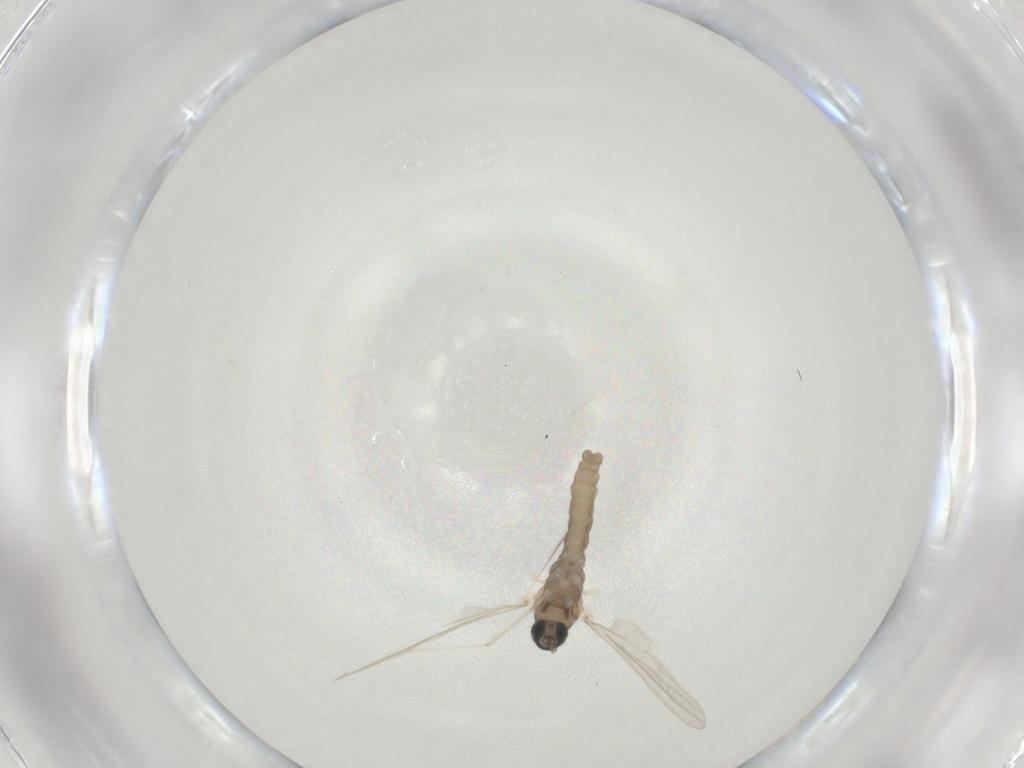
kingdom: Animalia
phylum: Arthropoda
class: Insecta
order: Diptera
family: Cecidomyiidae
